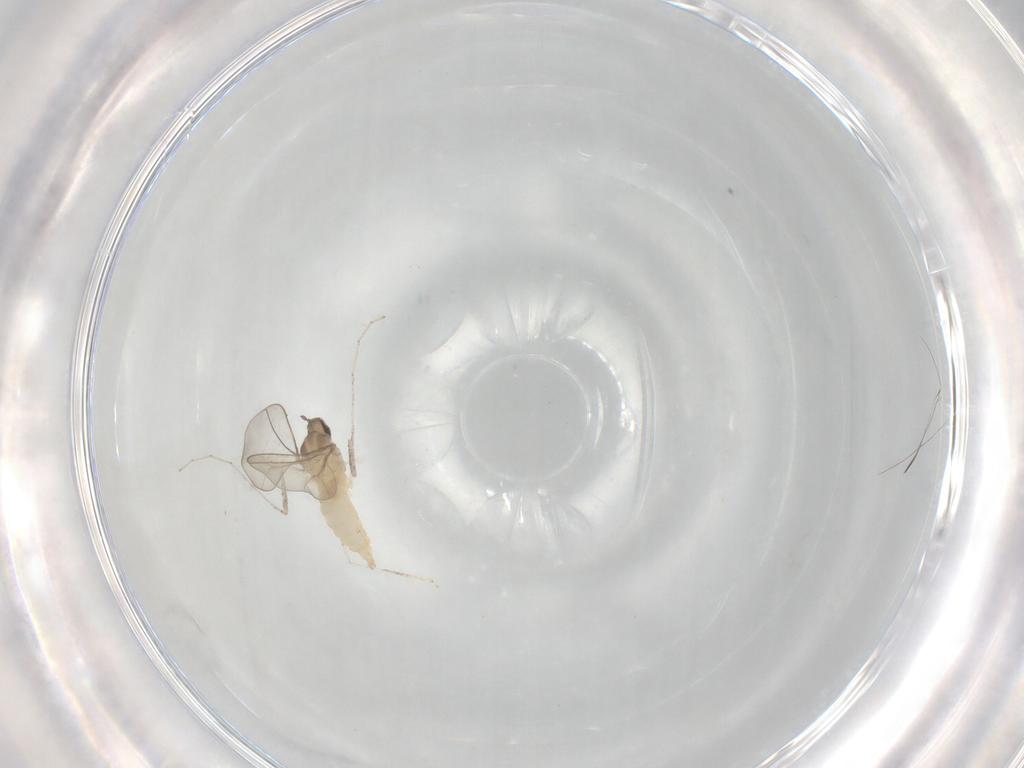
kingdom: Animalia
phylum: Arthropoda
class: Insecta
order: Diptera
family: Cecidomyiidae
